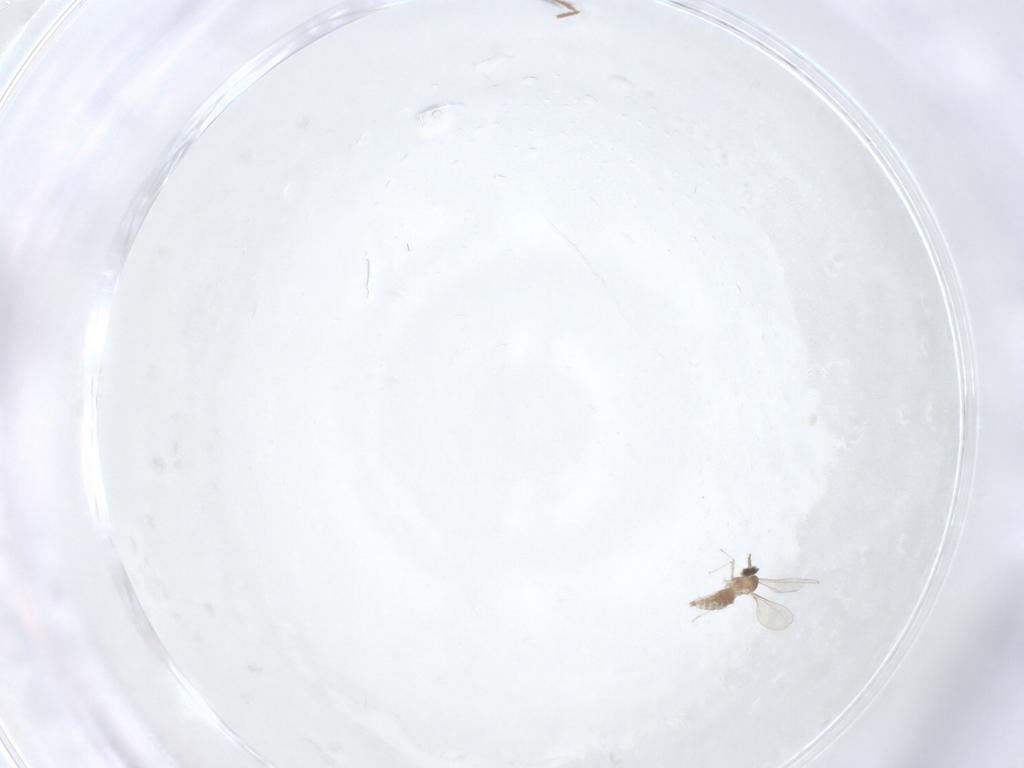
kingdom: Animalia
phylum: Arthropoda
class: Insecta
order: Diptera
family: Cecidomyiidae
